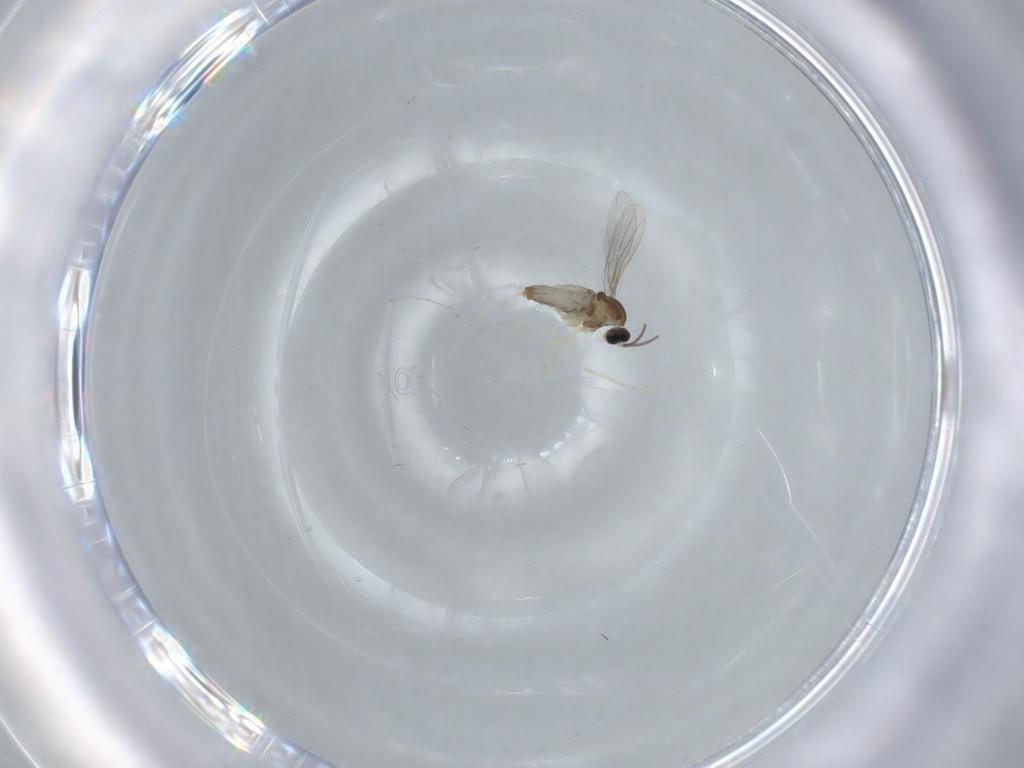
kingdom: Animalia
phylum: Arthropoda
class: Insecta
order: Diptera
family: Cecidomyiidae
